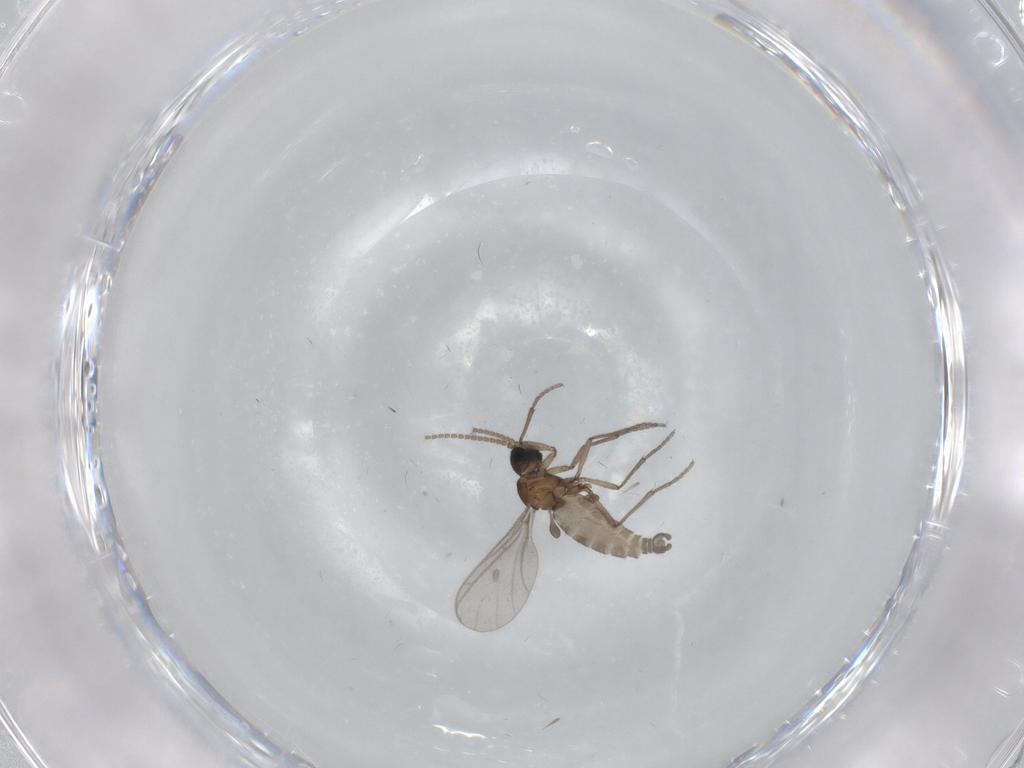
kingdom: Animalia
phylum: Arthropoda
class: Insecta
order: Diptera
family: Sciaridae
